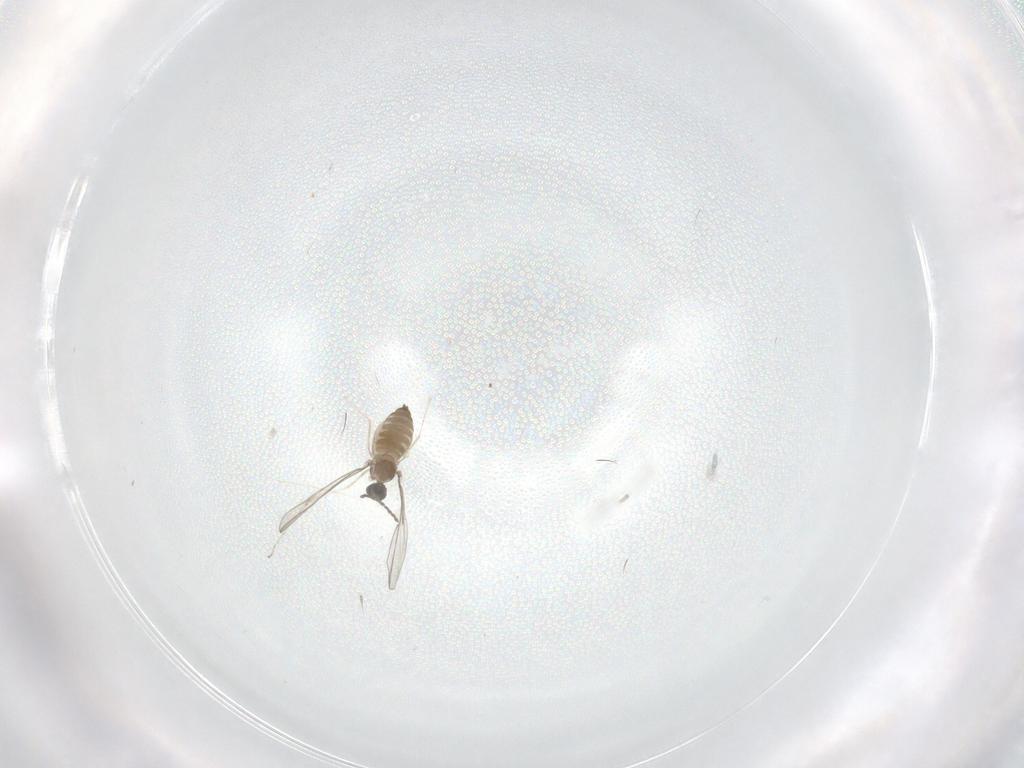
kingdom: Animalia
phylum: Arthropoda
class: Insecta
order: Diptera
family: Cecidomyiidae
